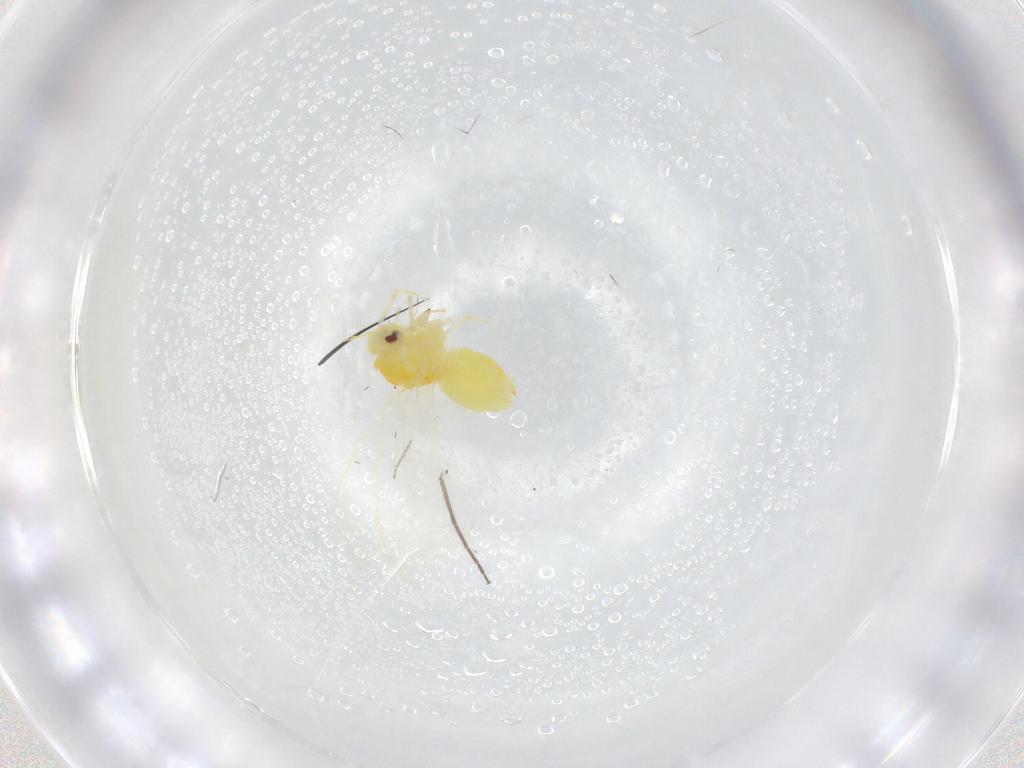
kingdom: Animalia
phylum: Arthropoda
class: Insecta
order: Hemiptera
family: Aleyrodidae
